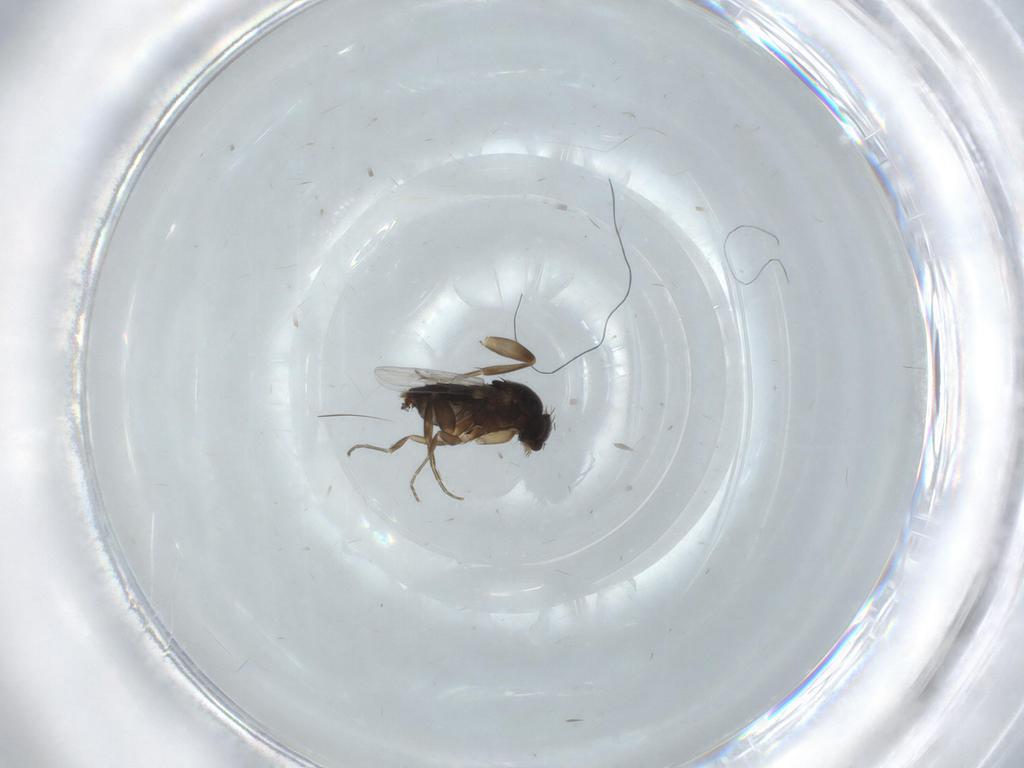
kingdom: Animalia
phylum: Arthropoda
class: Insecta
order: Diptera
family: Phoridae
